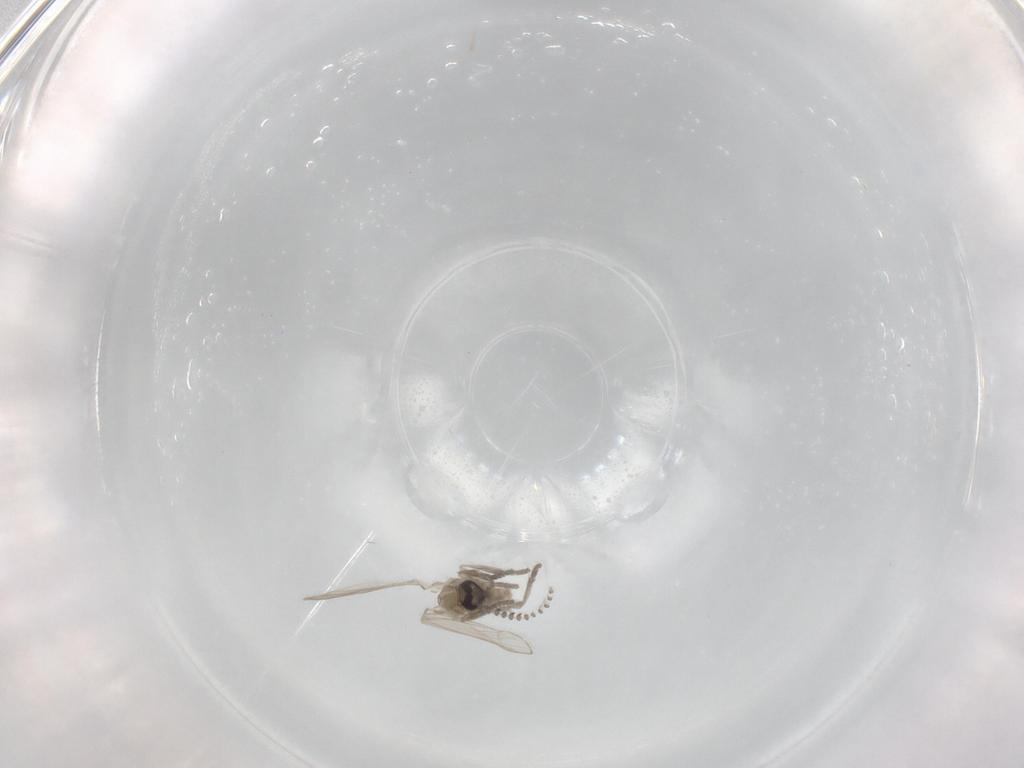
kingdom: Animalia
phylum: Arthropoda
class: Insecta
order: Diptera
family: Psychodidae
